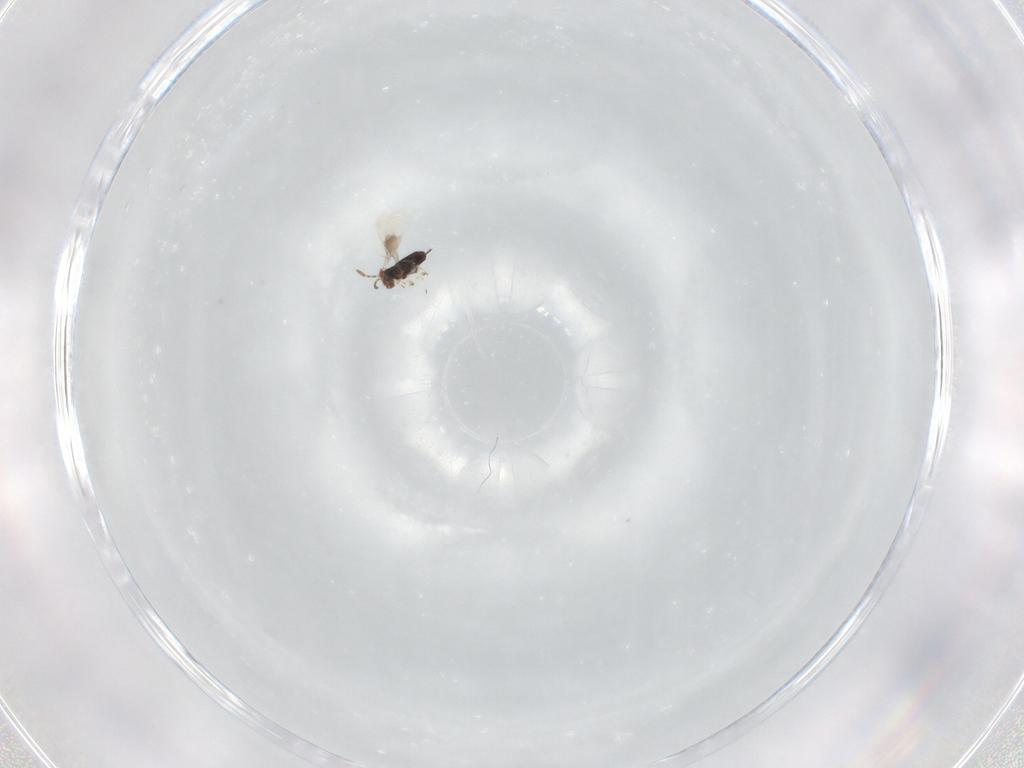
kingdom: Animalia
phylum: Arthropoda
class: Insecta
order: Hymenoptera
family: Azotidae
